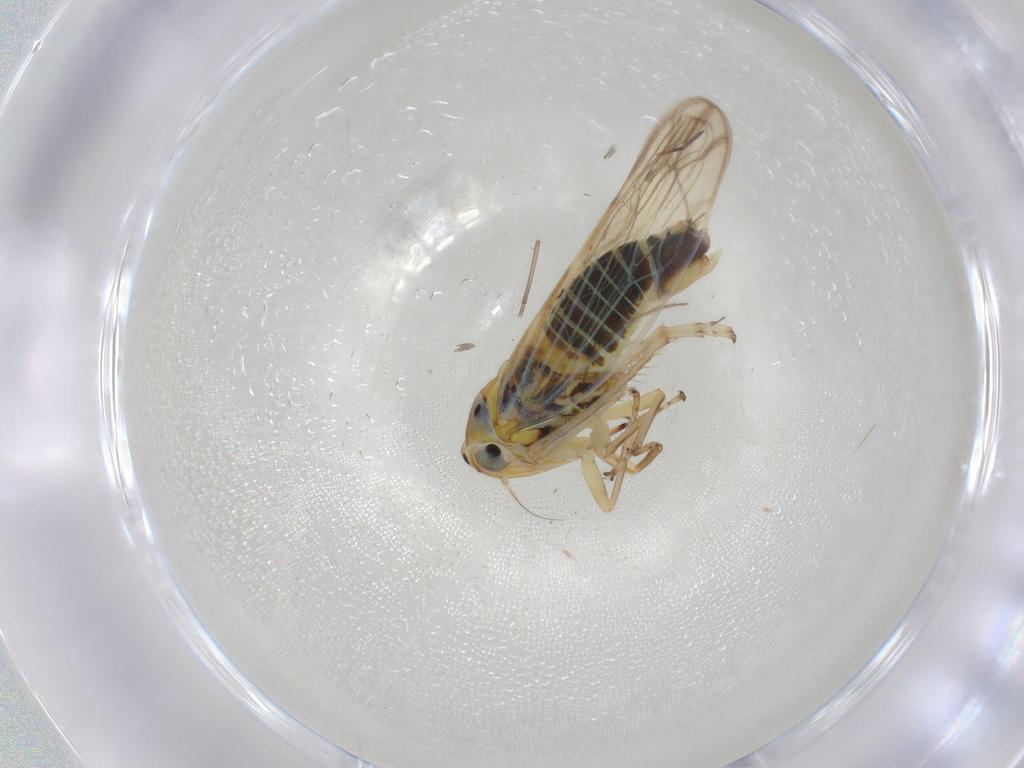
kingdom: Animalia
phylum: Arthropoda
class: Insecta
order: Hemiptera
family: Cicadellidae
